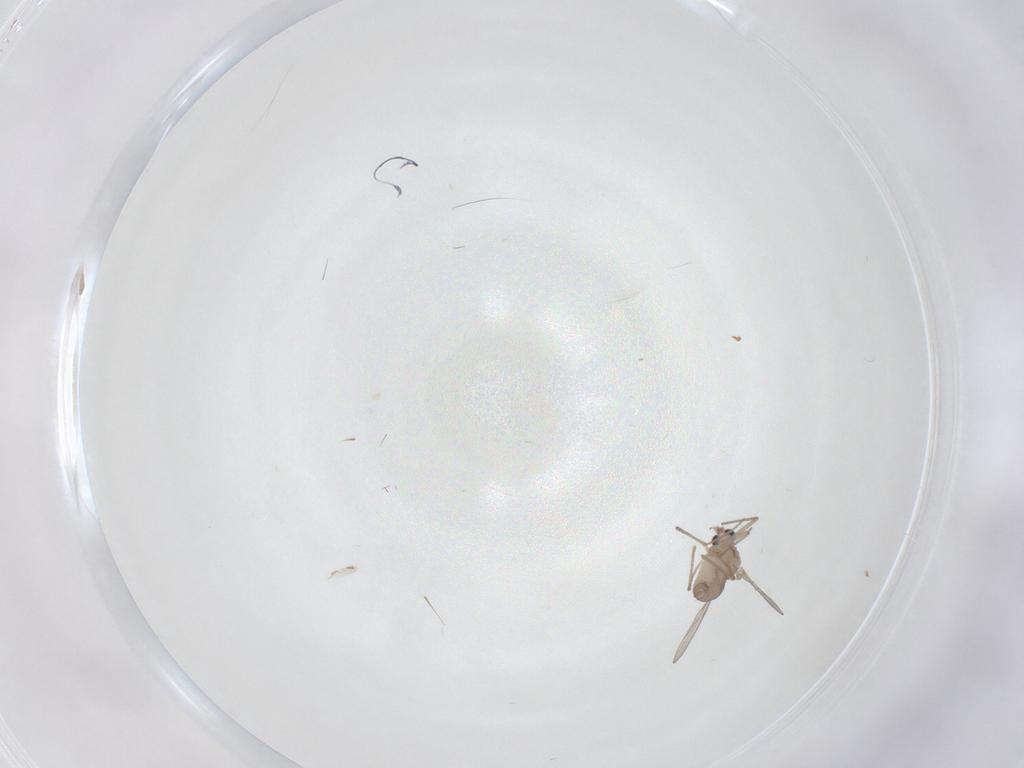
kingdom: Animalia
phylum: Arthropoda
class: Insecta
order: Diptera
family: Chironomidae
